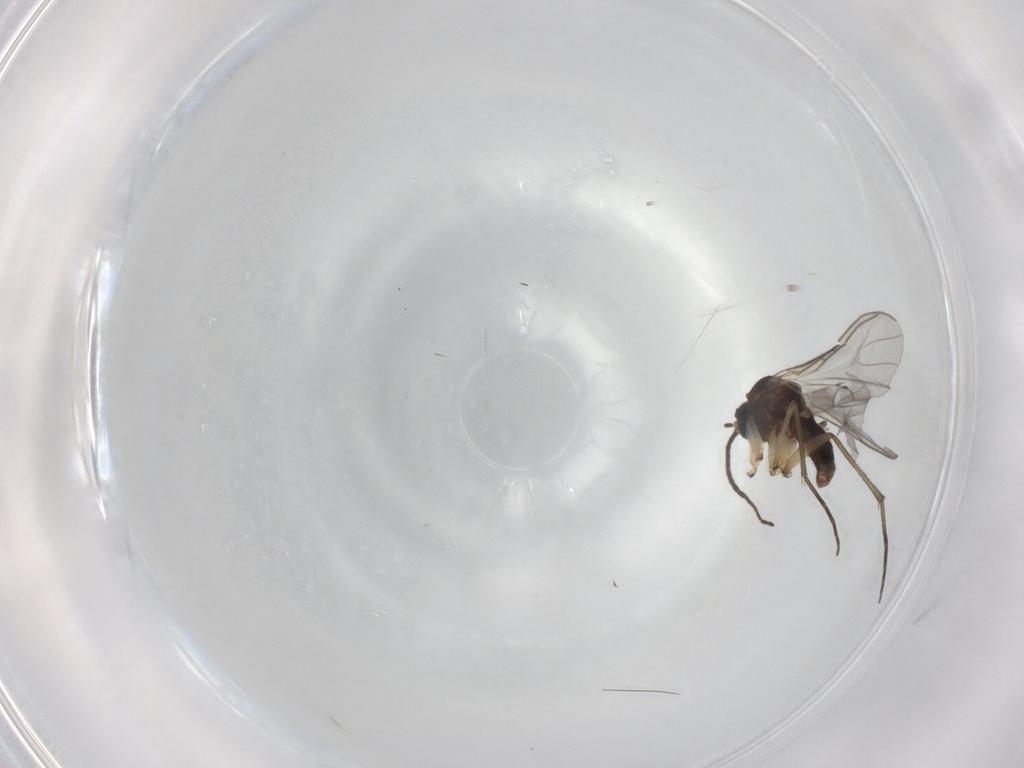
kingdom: Animalia
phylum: Arthropoda
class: Insecta
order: Diptera
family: Sciaridae
